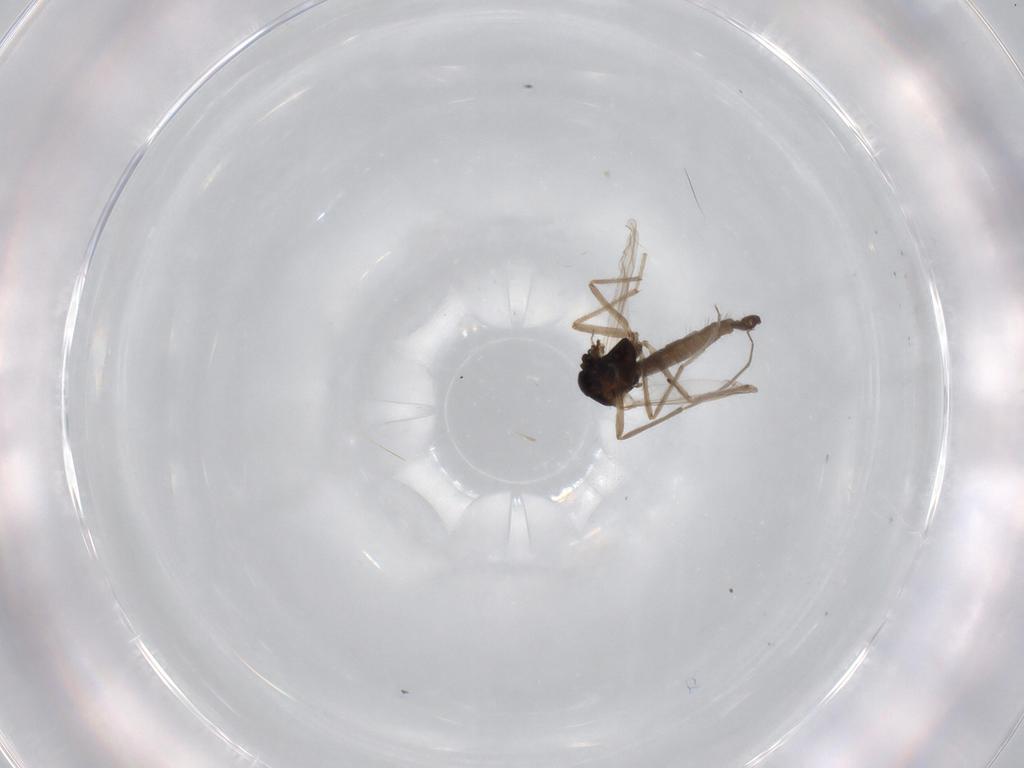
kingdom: Animalia
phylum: Arthropoda
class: Insecta
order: Diptera
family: Chironomidae
